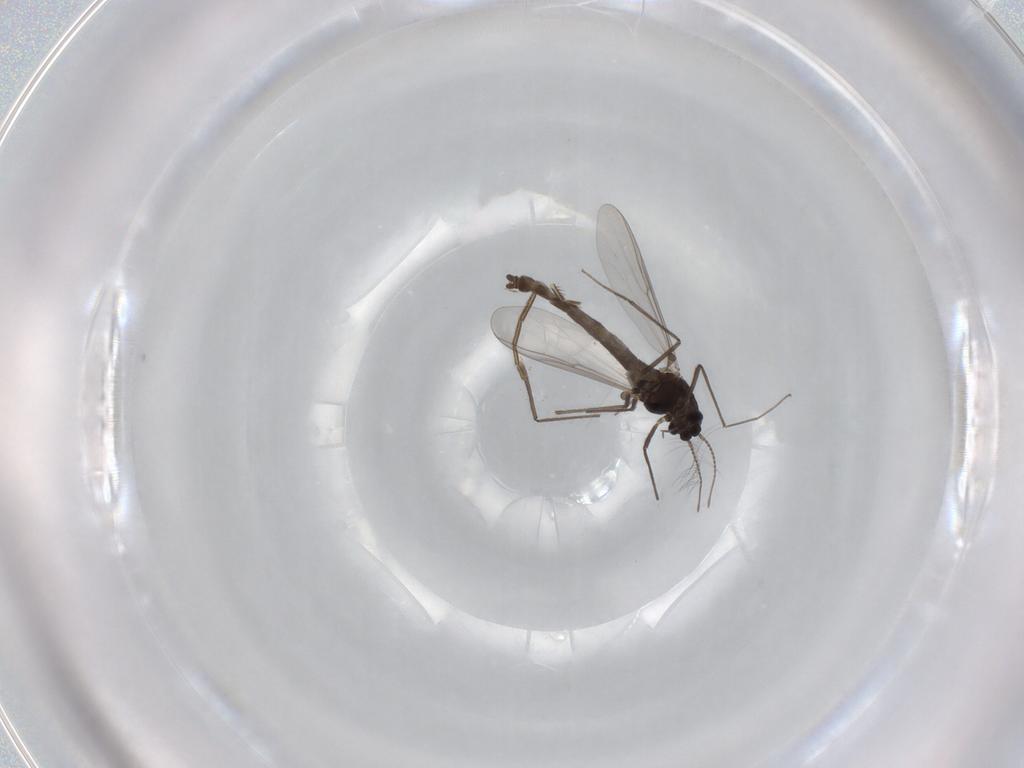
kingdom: Animalia
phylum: Arthropoda
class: Insecta
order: Diptera
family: Chironomidae
